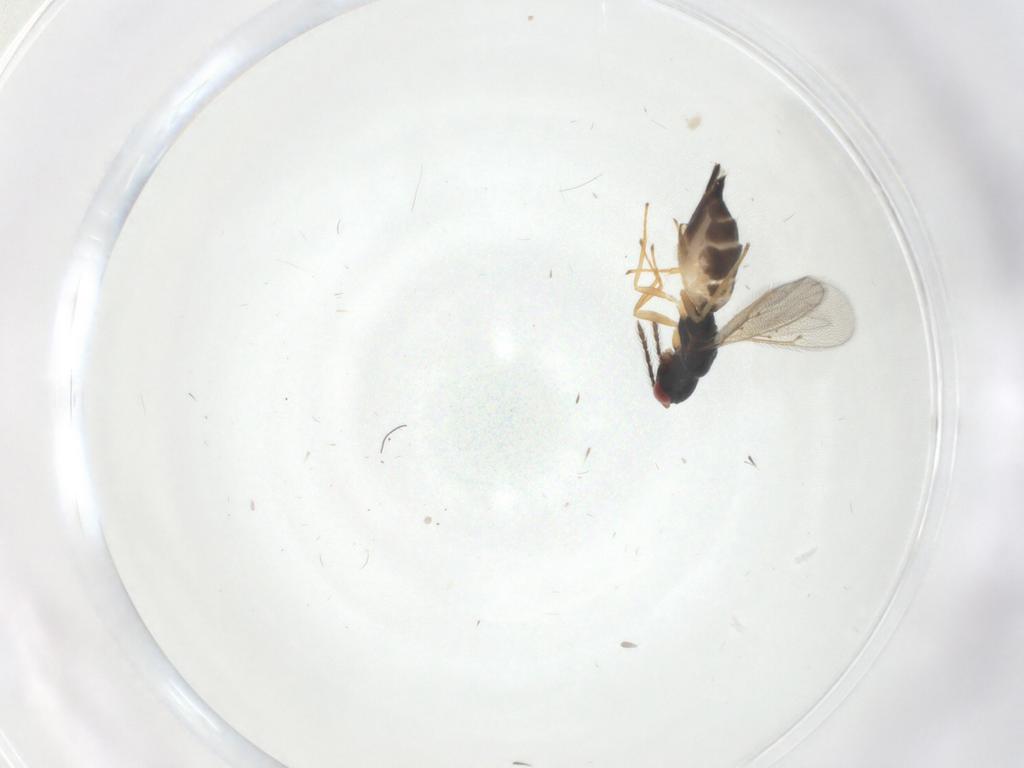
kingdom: Animalia
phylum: Arthropoda
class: Insecta
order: Hymenoptera
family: Eulophidae
